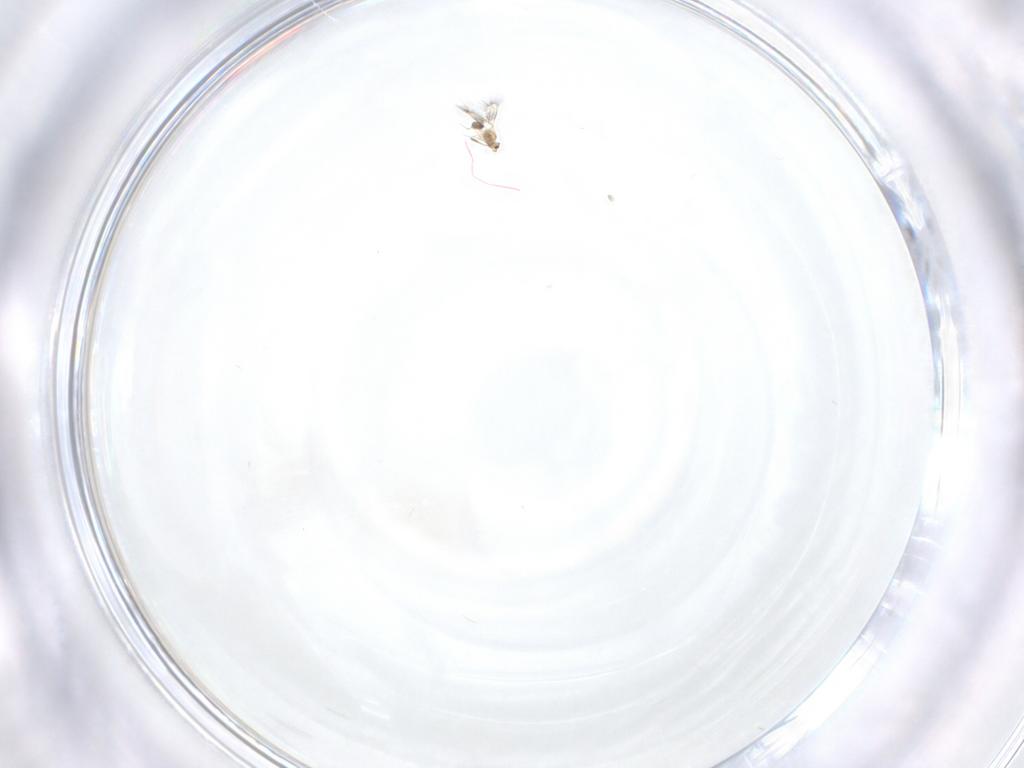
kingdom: Animalia
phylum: Arthropoda
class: Insecta
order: Hymenoptera
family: Mymarommatidae
